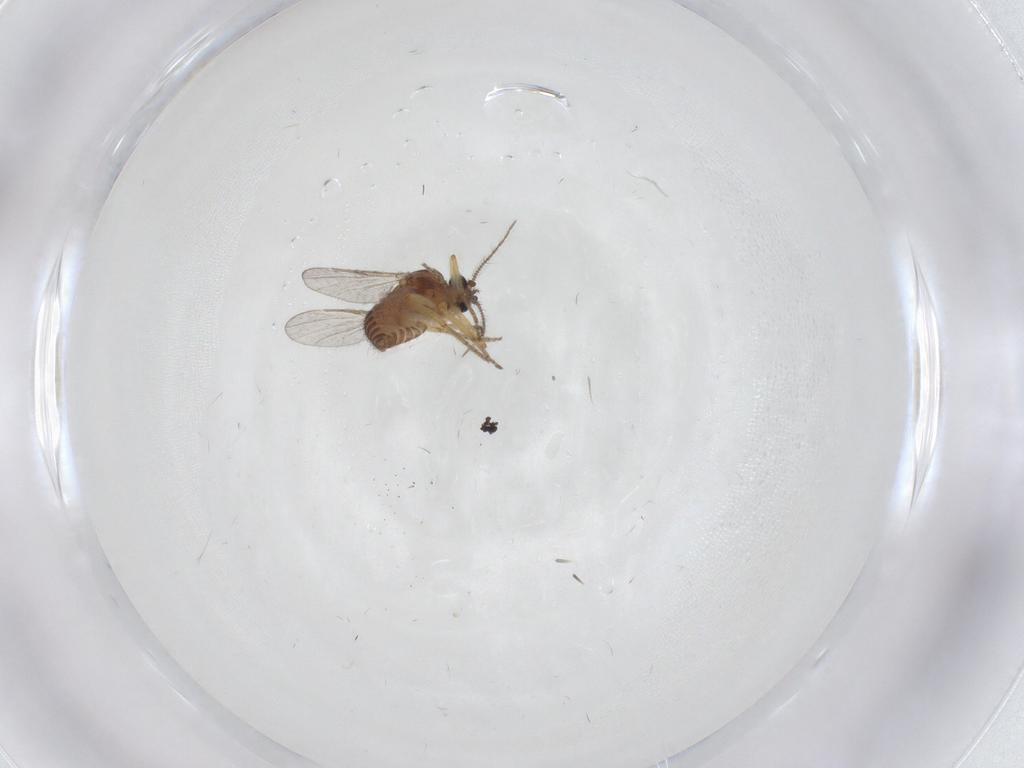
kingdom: Animalia
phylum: Arthropoda
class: Insecta
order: Diptera
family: Ceratopogonidae
